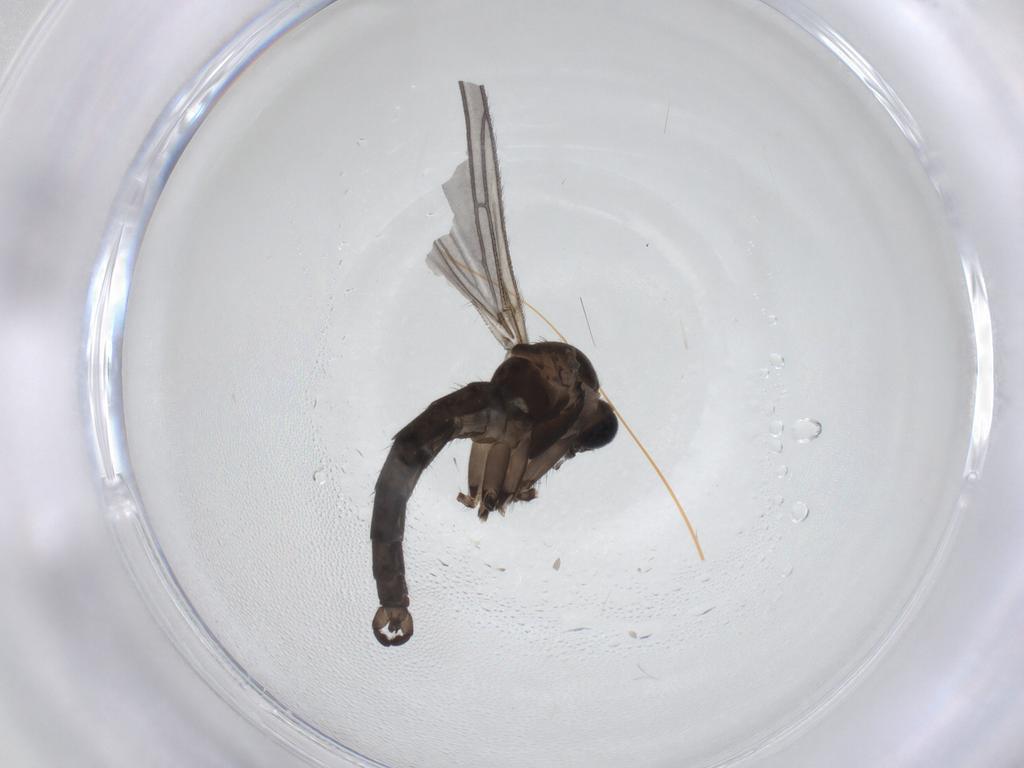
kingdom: Animalia
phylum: Arthropoda
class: Insecta
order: Diptera
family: Sciaridae
